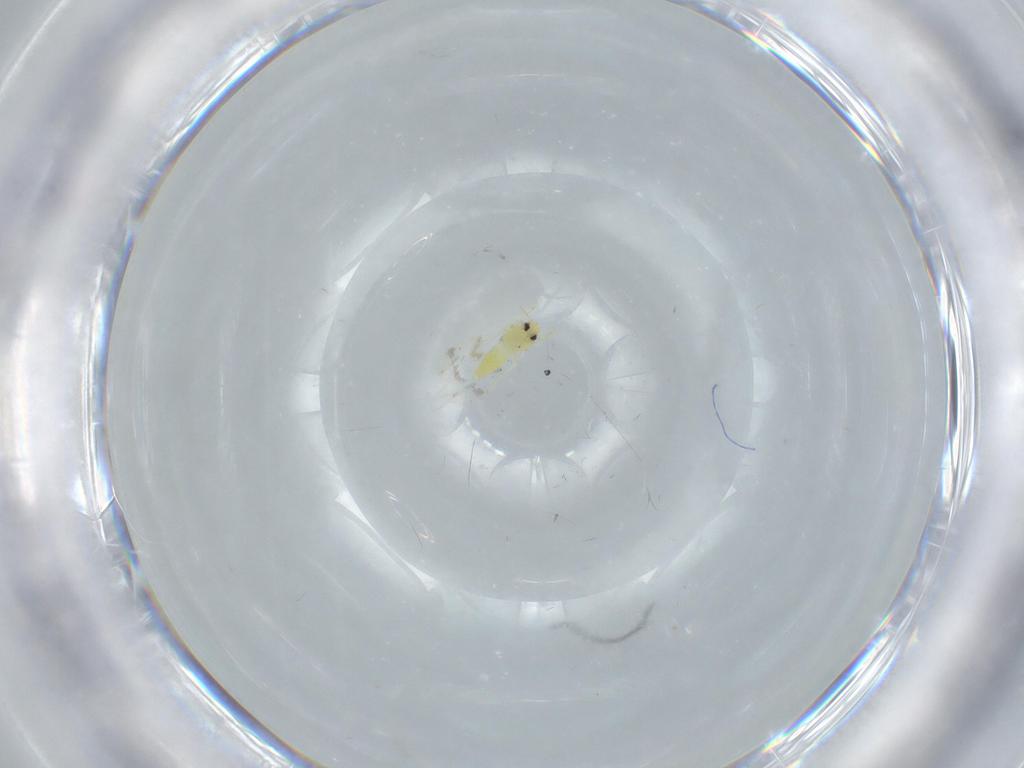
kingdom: Animalia
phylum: Arthropoda
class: Insecta
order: Hemiptera
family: Aleyrodidae
